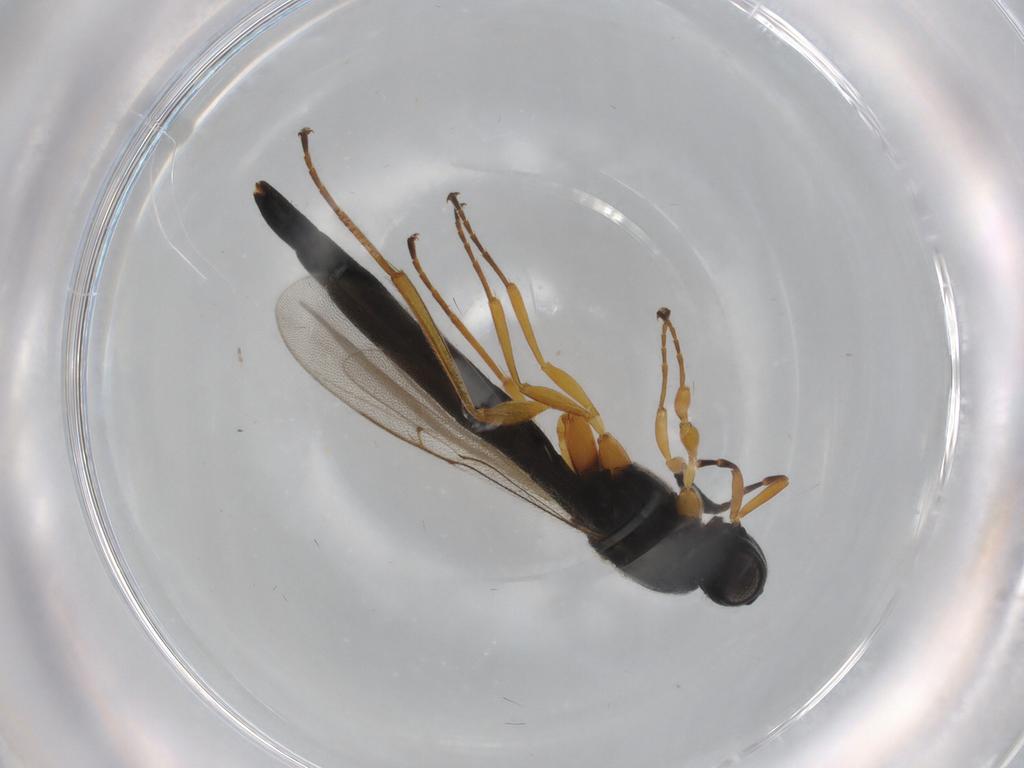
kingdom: Animalia
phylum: Arthropoda
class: Insecta
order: Hymenoptera
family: Scelionidae
